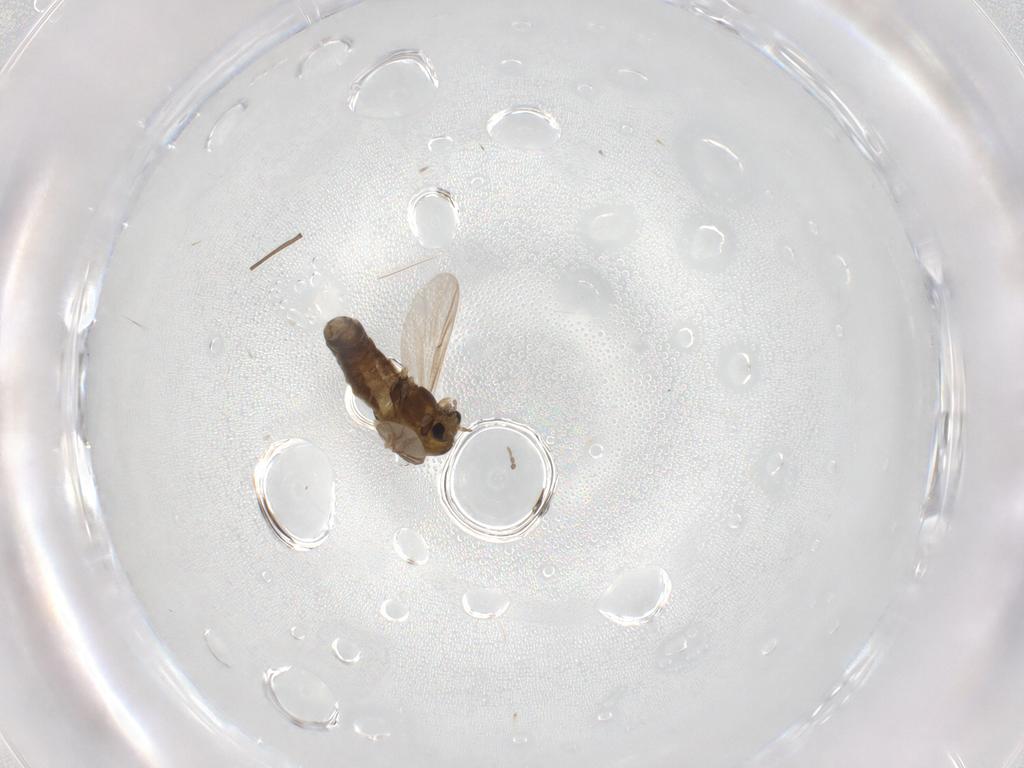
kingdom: Animalia
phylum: Arthropoda
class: Insecta
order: Diptera
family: Chironomidae
